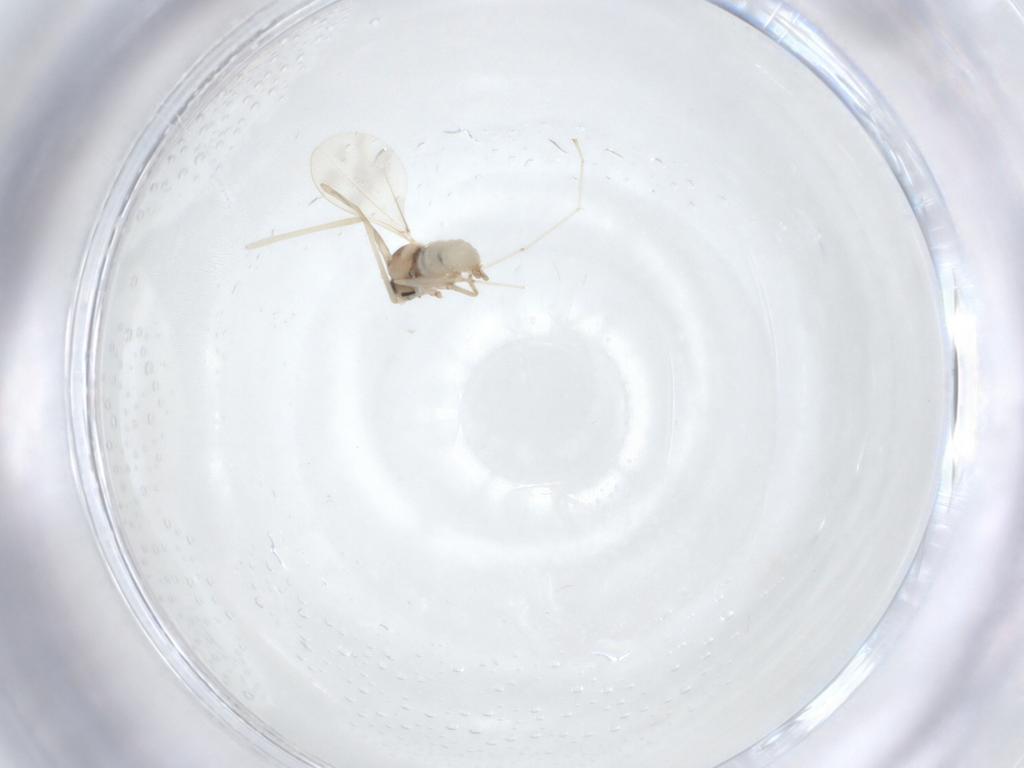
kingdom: Animalia
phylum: Arthropoda
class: Insecta
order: Diptera
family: Cecidomyiidae
